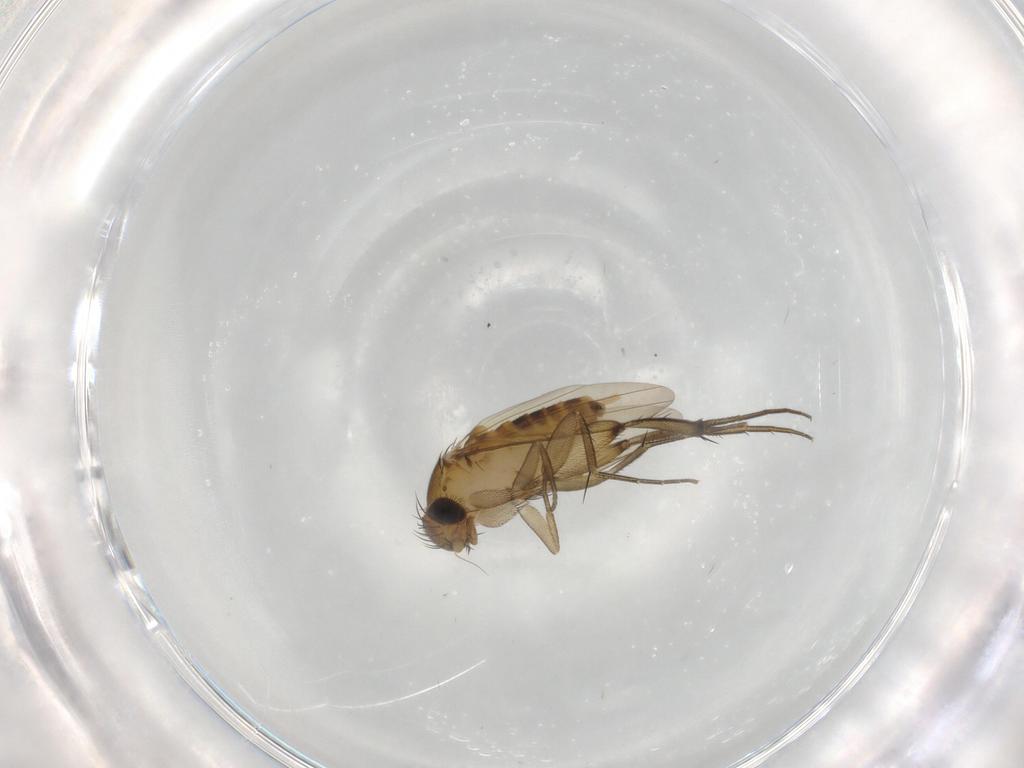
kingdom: Animalia
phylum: Arthropoda
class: Insecta
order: Diptera
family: Phoridae
